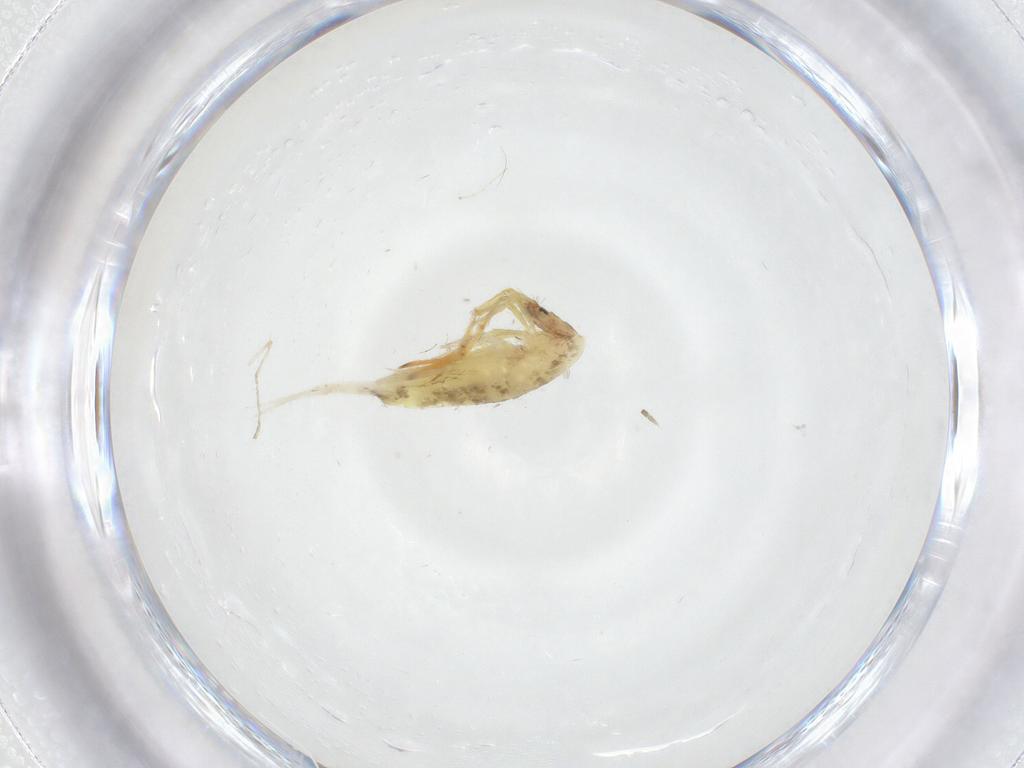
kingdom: Animalia
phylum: Arthropoda
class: Collembola
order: Entomobryomorpha
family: Entomobryidae
